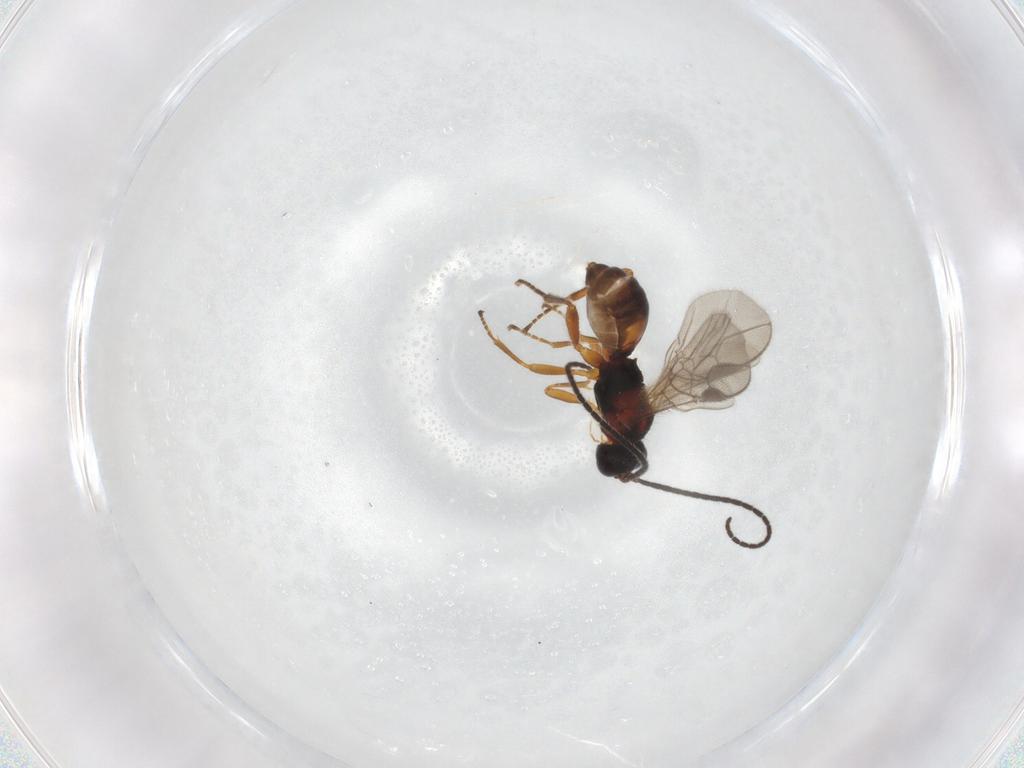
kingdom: Animalia
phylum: Arthropoda
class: Insecta
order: Hymenoptera
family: Braconidae
